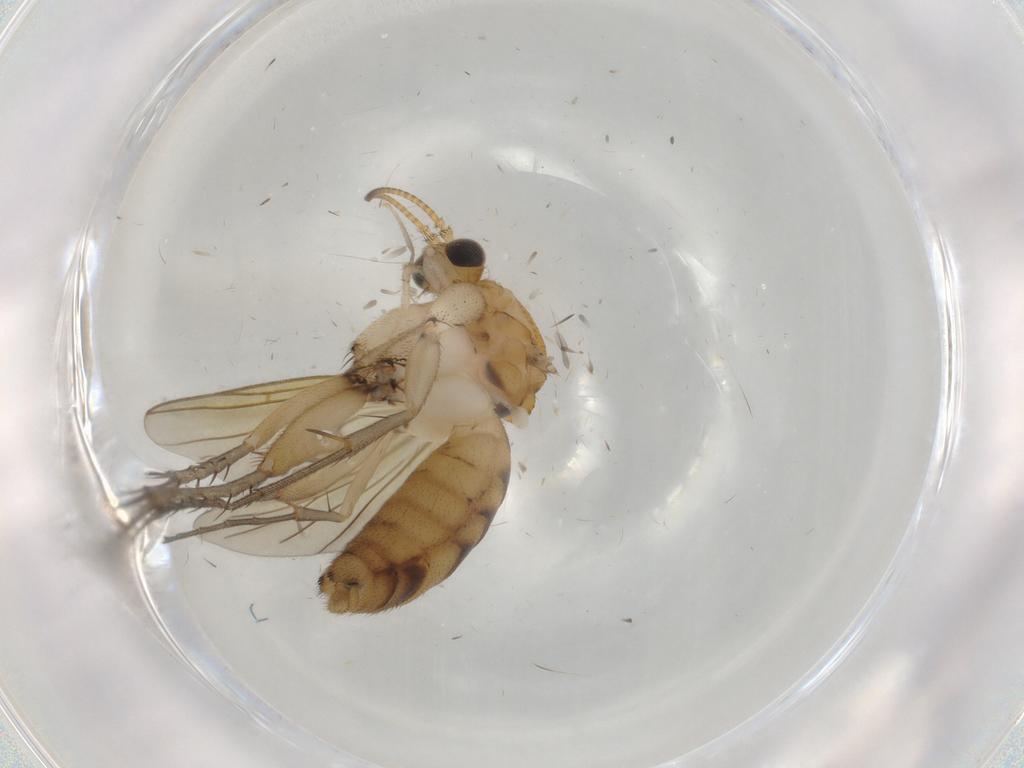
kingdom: Animalia
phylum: Arthropoda
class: Insecta
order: Diptera
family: Mycetophilidae
